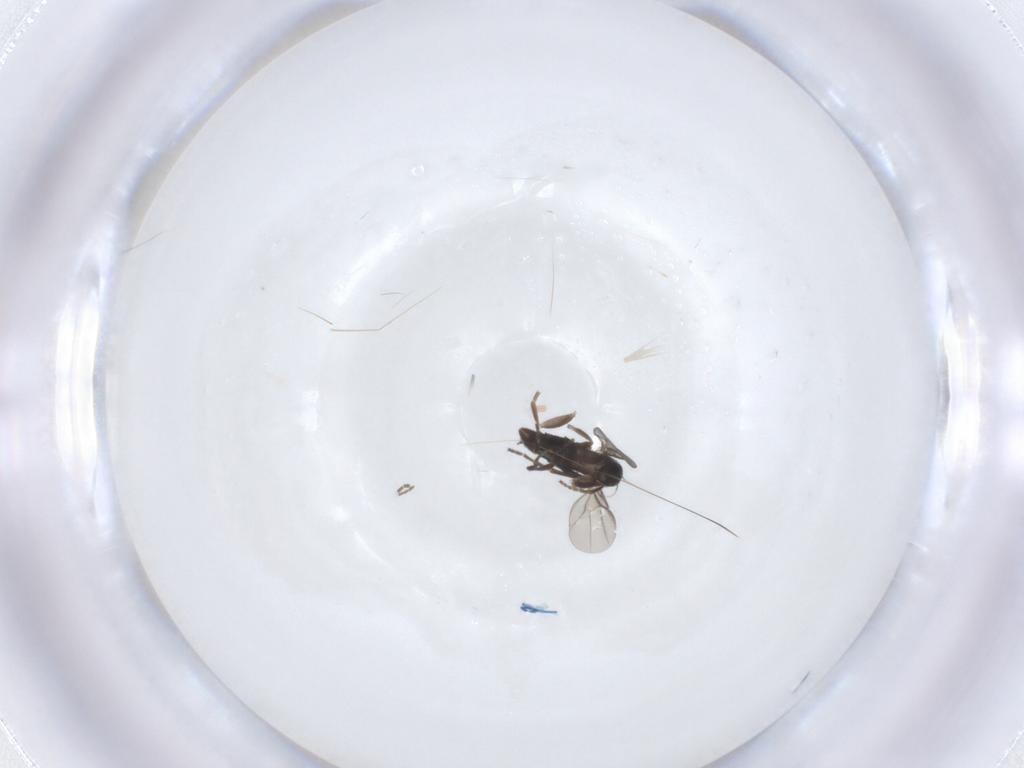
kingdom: Animalia
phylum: Arthropoda
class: Insecta
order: Diptera
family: Phoridae
